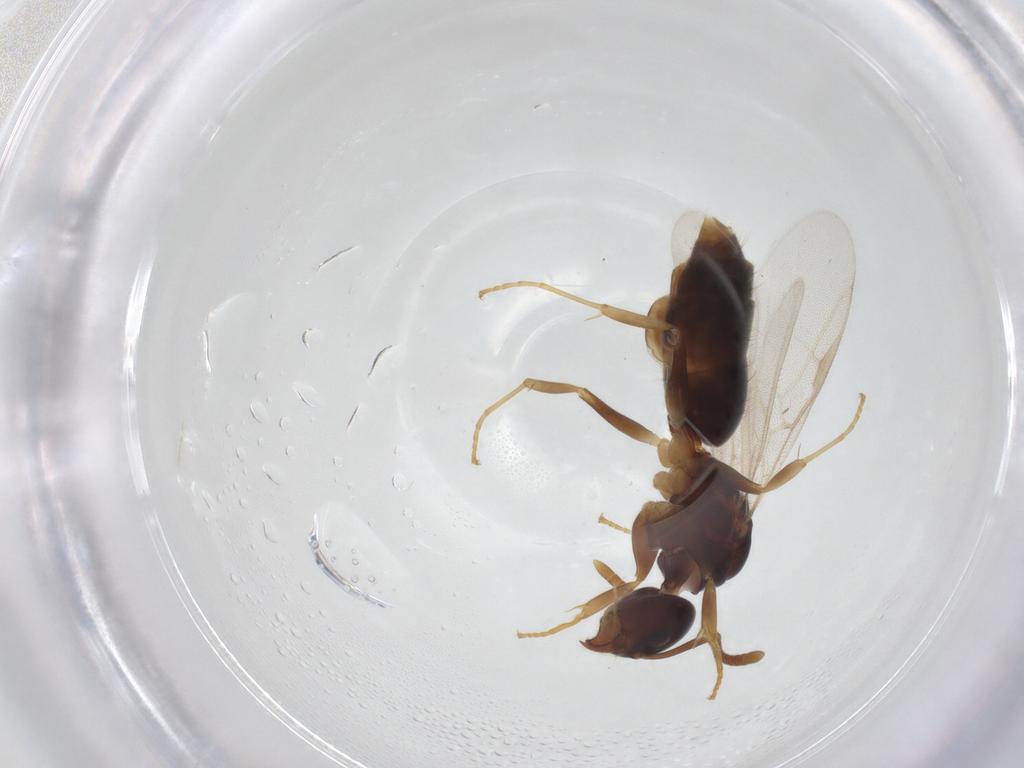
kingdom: Animalia
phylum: Arthropoda
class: Insecta
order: Hymenoptera
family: Formicidae
